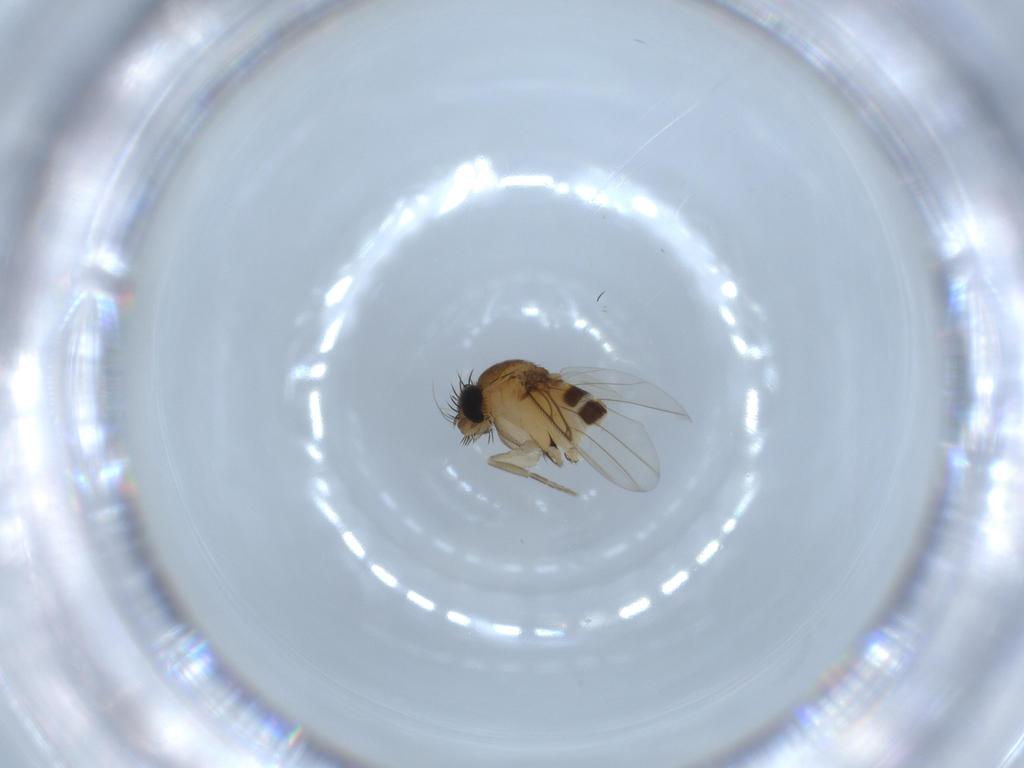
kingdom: Animalia
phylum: Arthropoda
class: Insecta
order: Diptera
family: Phoridae
